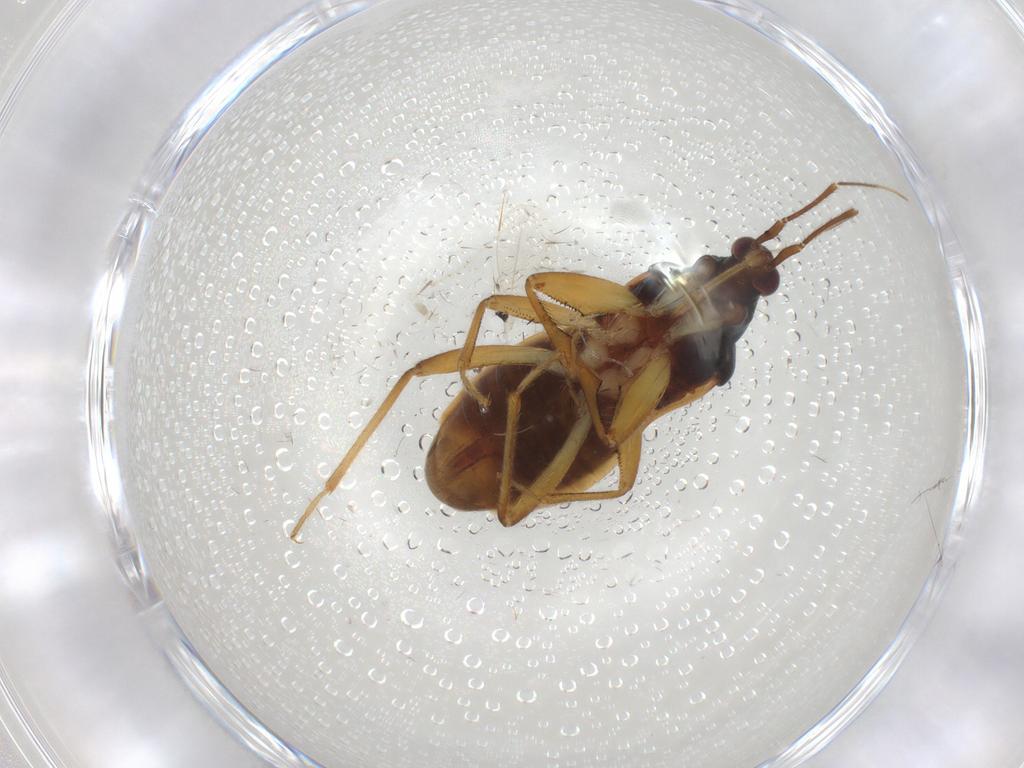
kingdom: Animalia
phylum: Arthropoda
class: Insecta
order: Hemiptera
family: Nabidae
